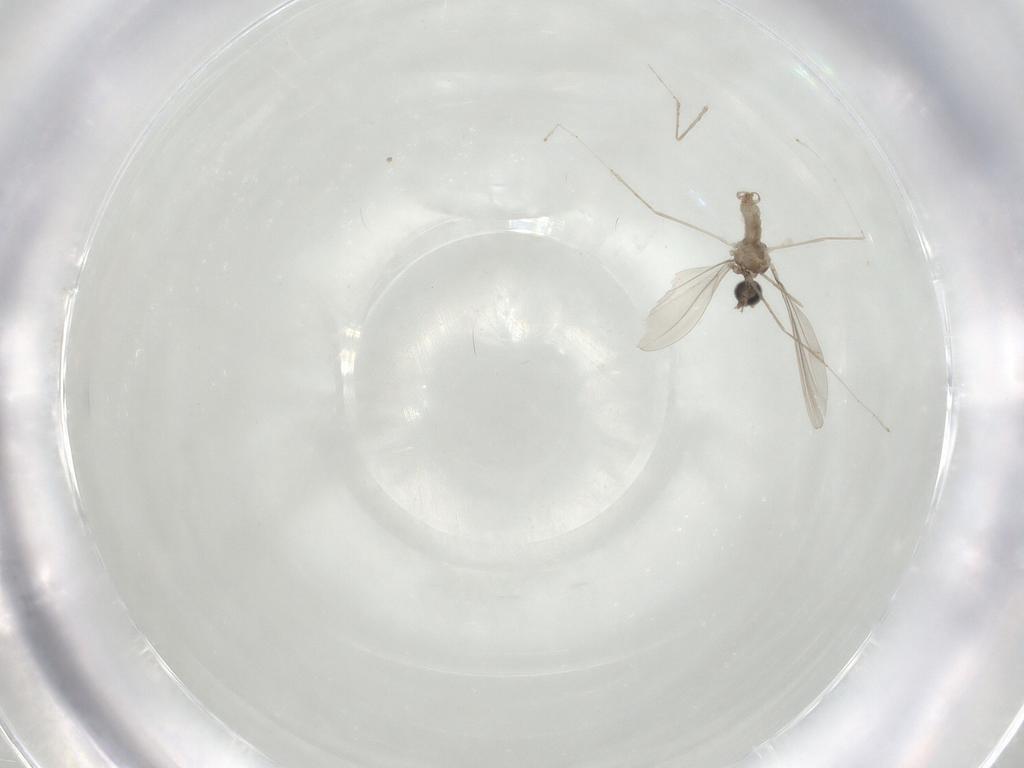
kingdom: Animalia
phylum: Arthropoda
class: Insecta
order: Diptera
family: Cecidomyiidae
